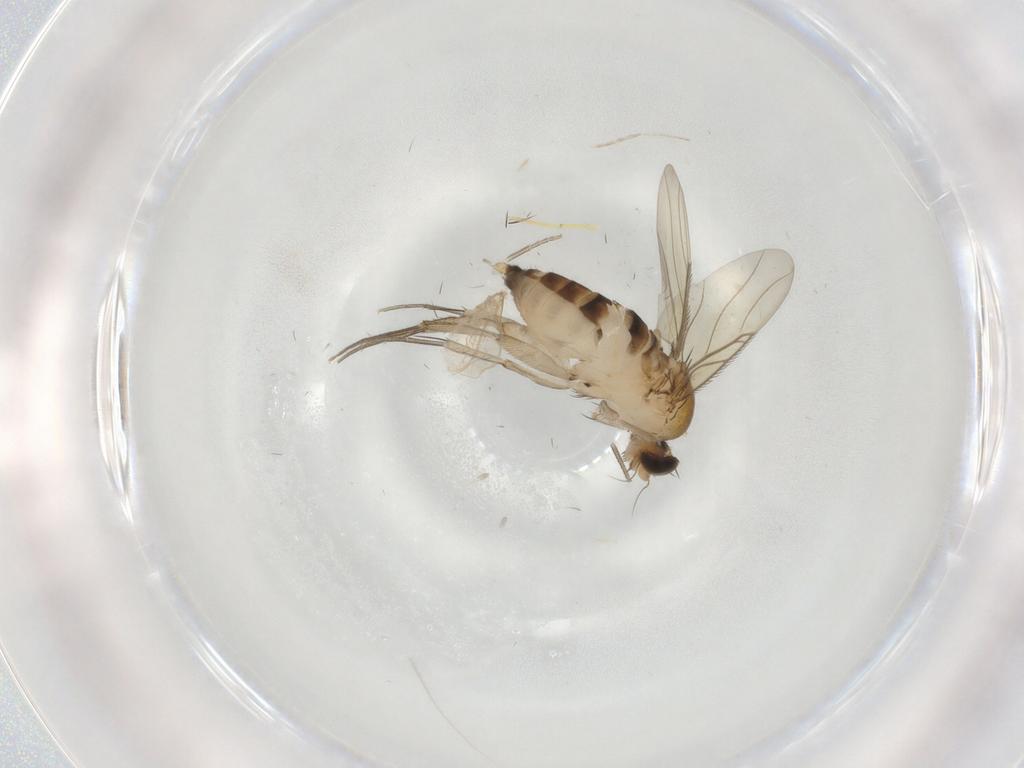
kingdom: Animalia
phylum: Arthropoda
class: Insecta
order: Diptera
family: Phoridae
